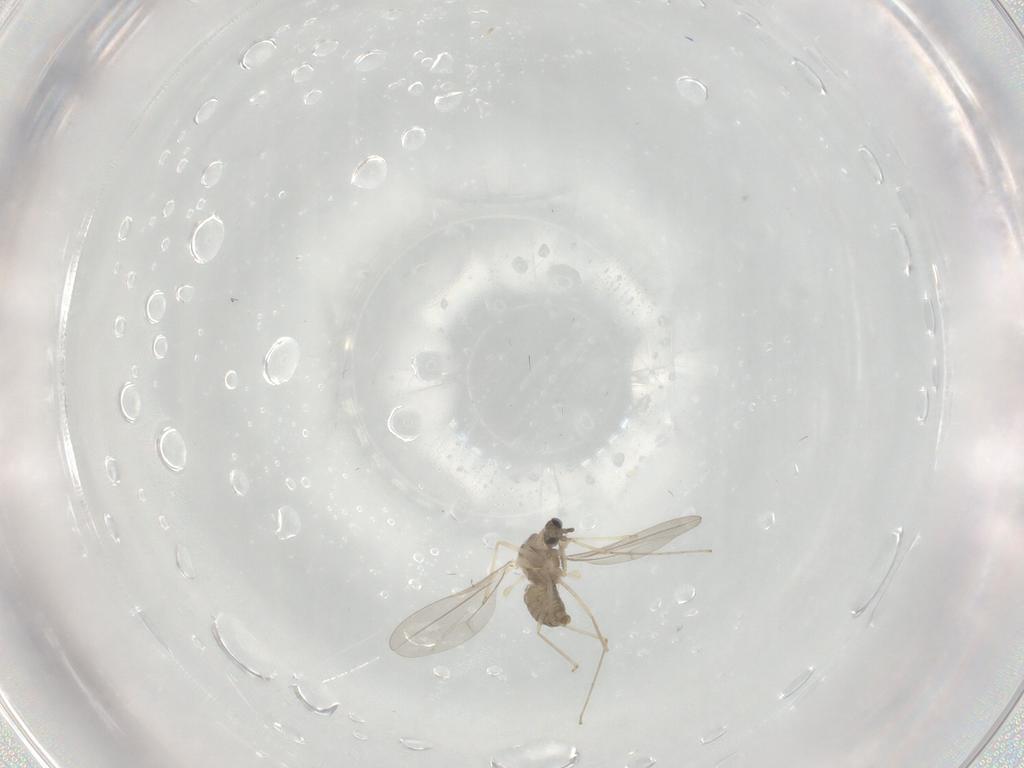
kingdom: Animalia
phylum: Arthropoda
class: Insecta
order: Diptera
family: Cecidomyiidae
